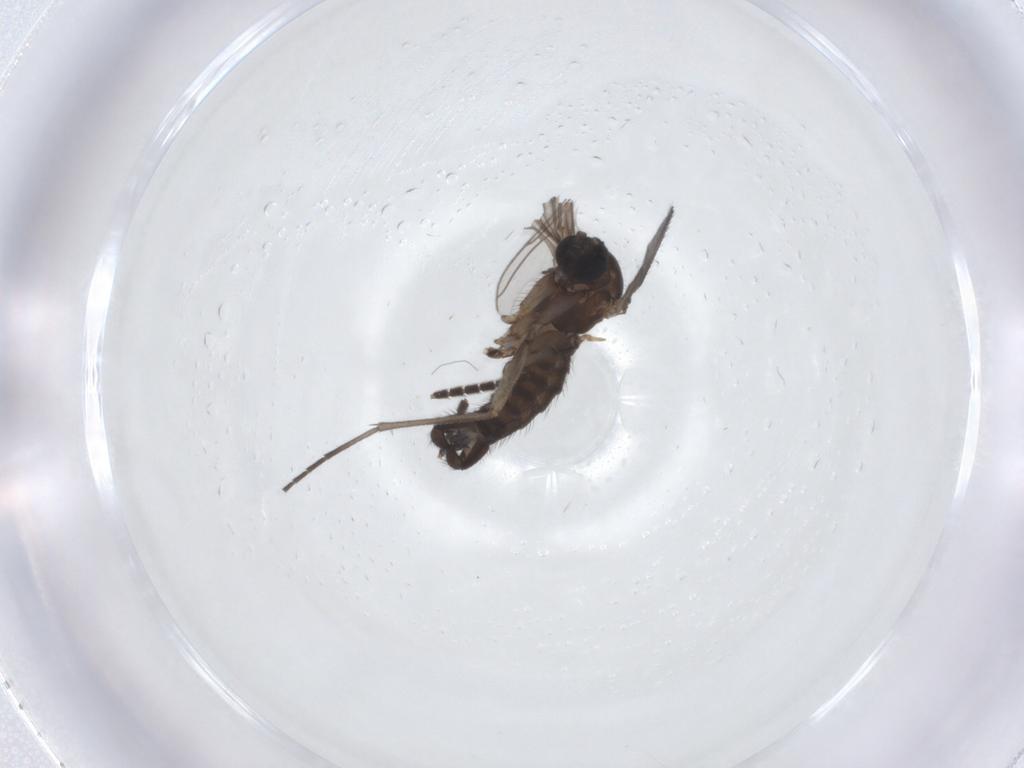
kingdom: Animalia
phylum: Arthropoda
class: Insecta
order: Diptera
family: Sciaridae
